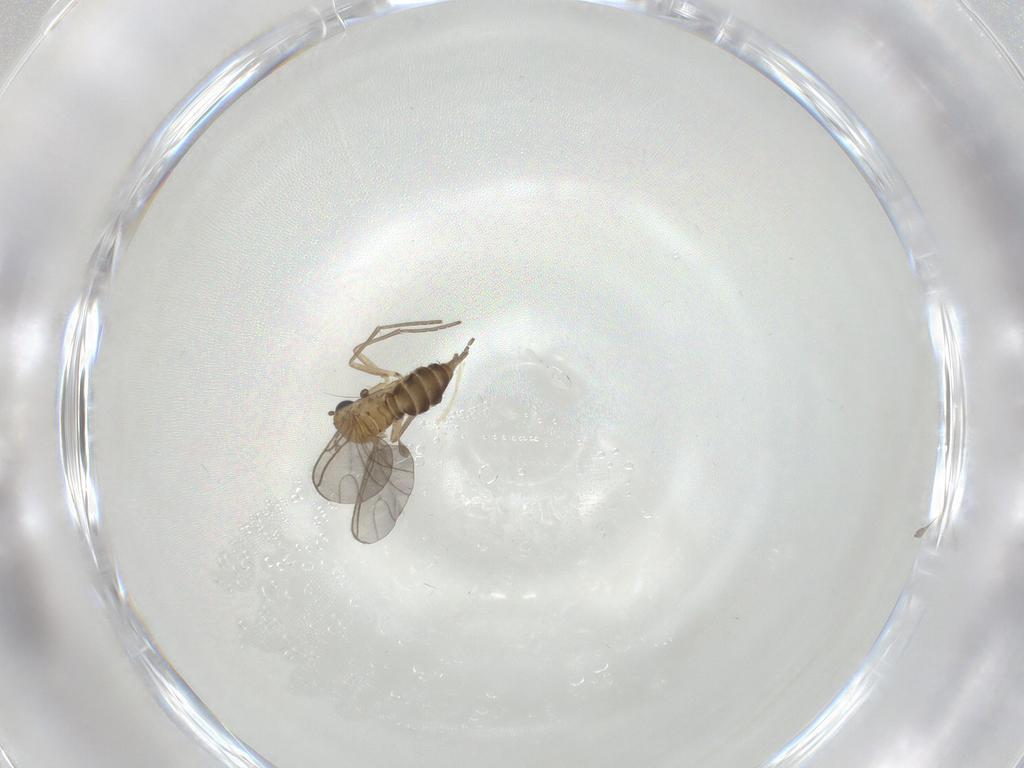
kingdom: Animalia
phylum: Arthropoda
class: Insecta
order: Diptera
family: Sciaridae
